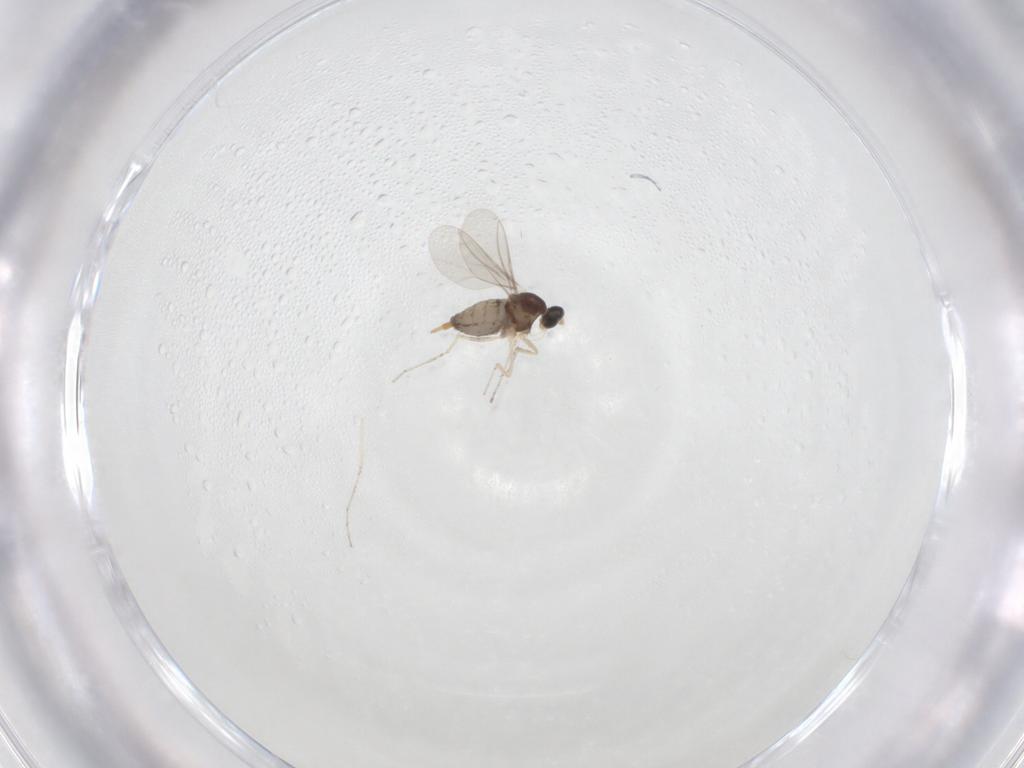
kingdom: Animalia
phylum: Arthropoda
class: Insecta
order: Diptera
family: Cecidomyiidae
